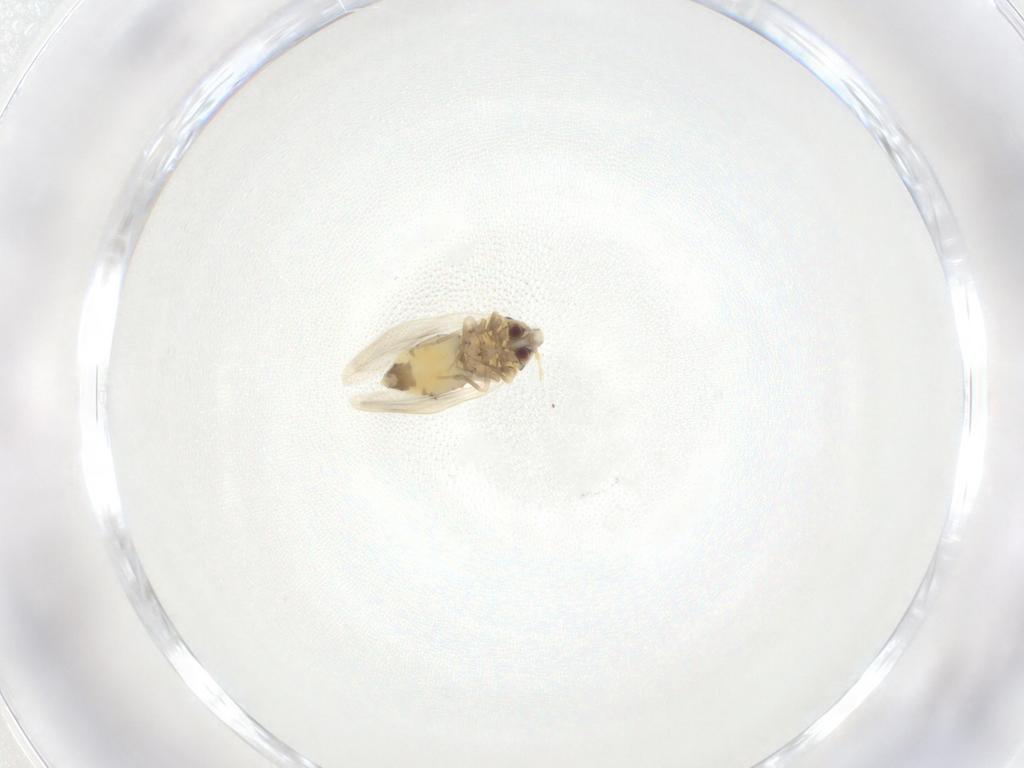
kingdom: Animalia
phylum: Arthropoda
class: Insecta
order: Hemiptera
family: Aleyrodidae
